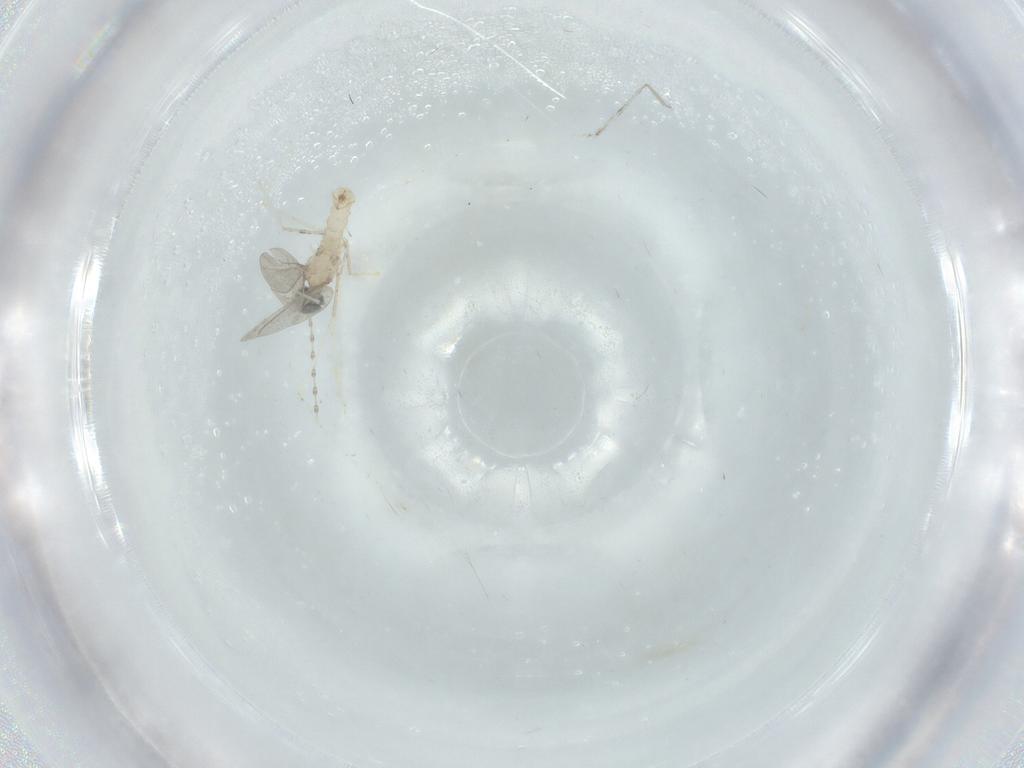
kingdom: Animalia
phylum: Arthropoda
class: Insecta
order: Diptera
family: Cecidomyiidae
